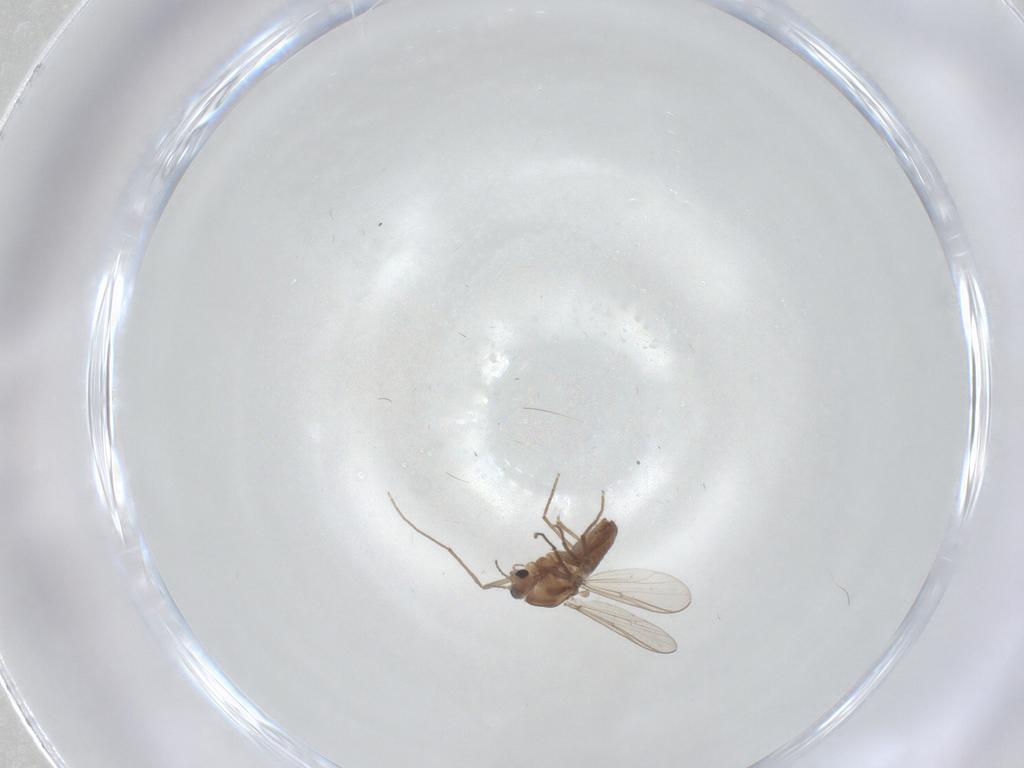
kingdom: Animalia
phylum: Arthropoda
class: Insecta
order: Diptera
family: Chironomidae
